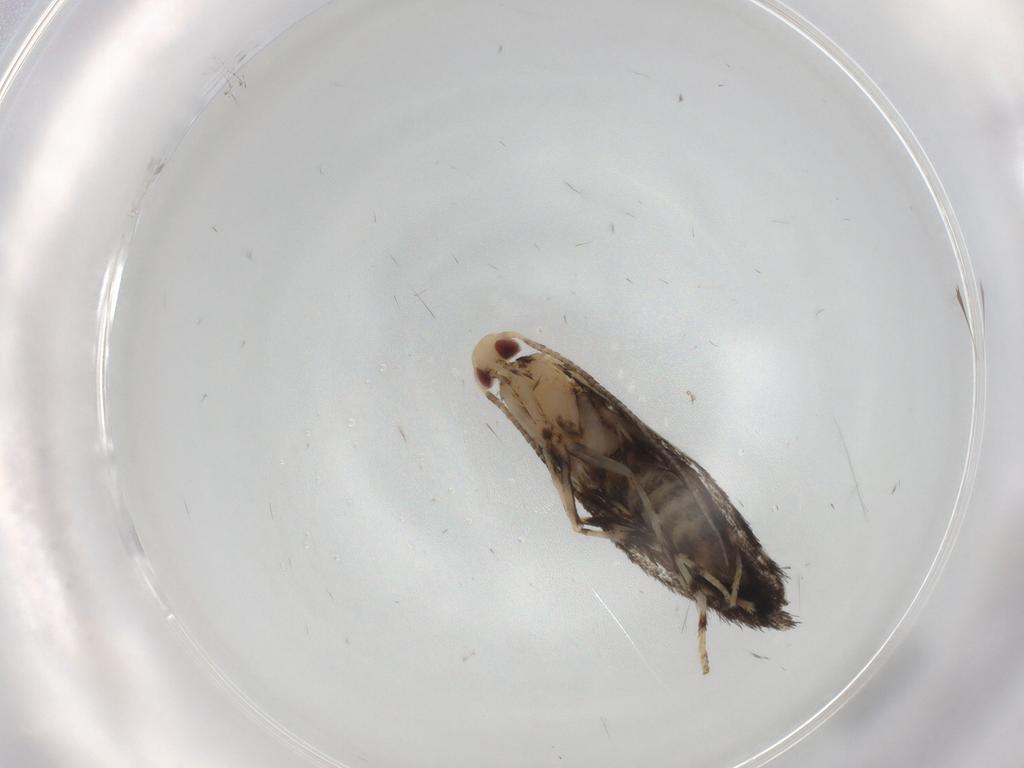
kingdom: Animalia
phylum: Arthropoda
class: Insecta
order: Lepidoptera
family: Gracillariidae
